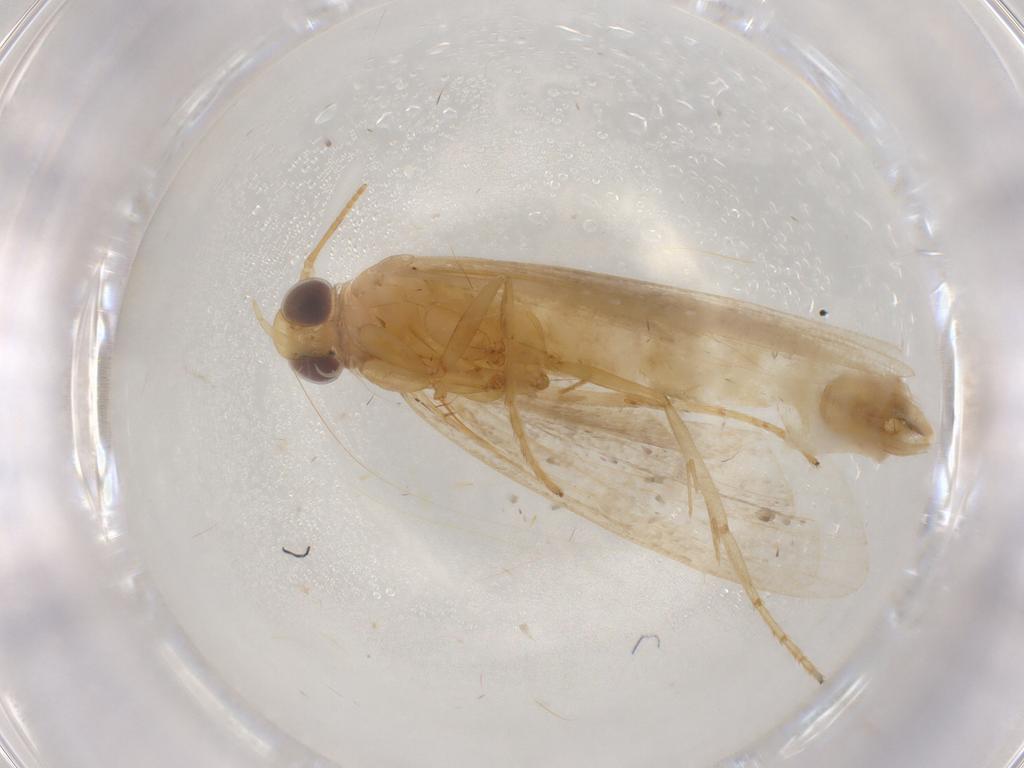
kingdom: Animalia
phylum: Arthropoda
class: Insecta
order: Lepidoptera
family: Pyralidae
